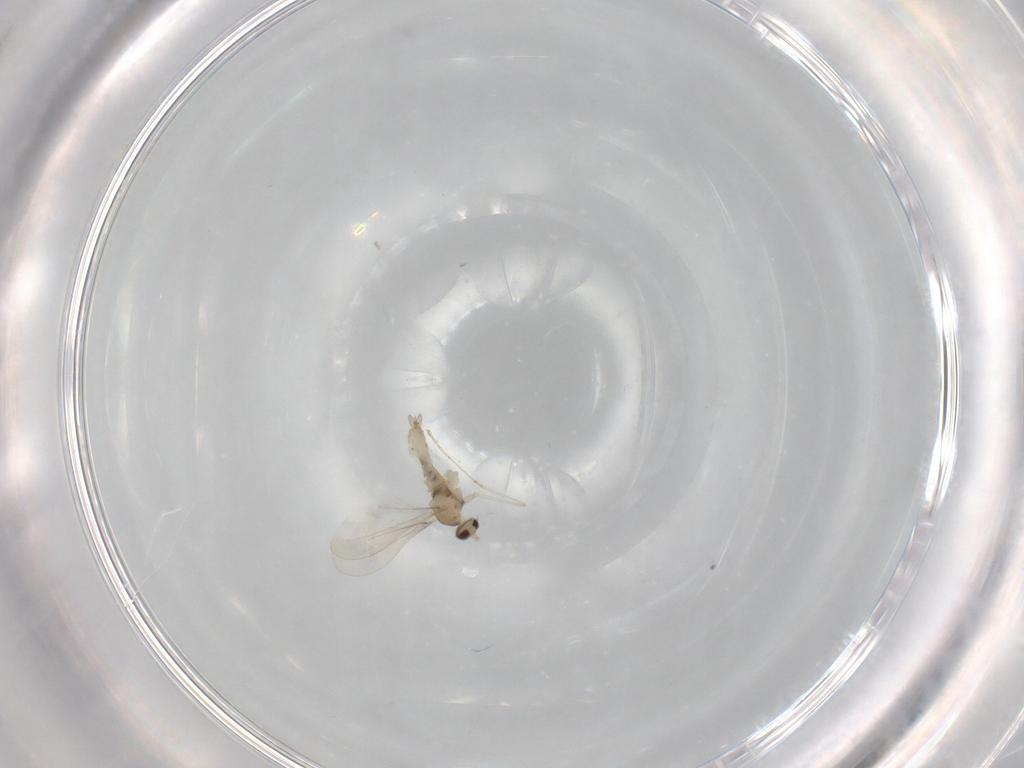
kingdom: Animalia
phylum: Arthropoda
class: Insecta
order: Diptera
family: Cecidomyiidae
